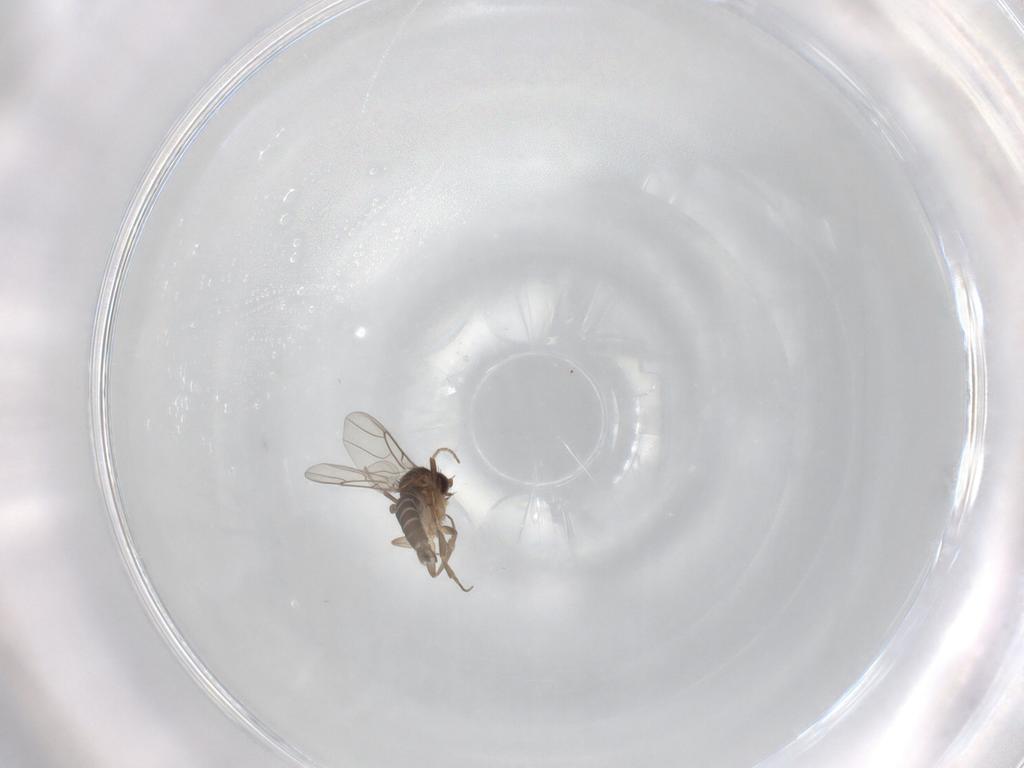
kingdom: Animalia
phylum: Arthropoda
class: Insecta
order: Diptera
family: Phoridae
